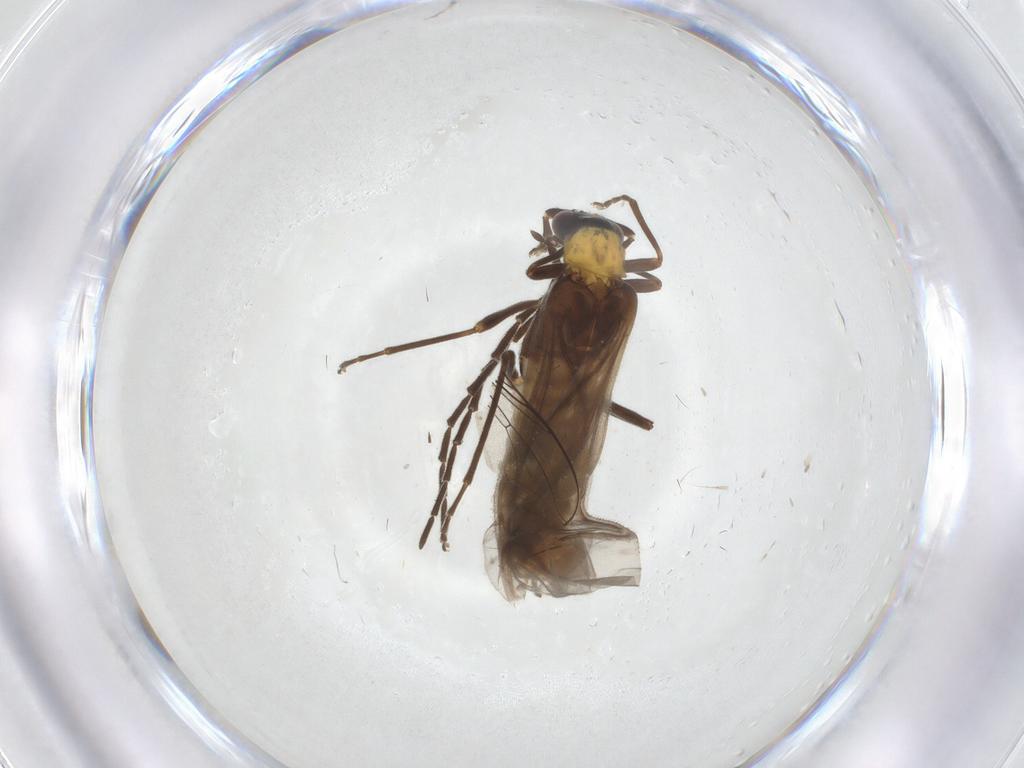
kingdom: Animalia
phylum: Arthropoda
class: Insecta
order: Coleoptera
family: Cantharidae
